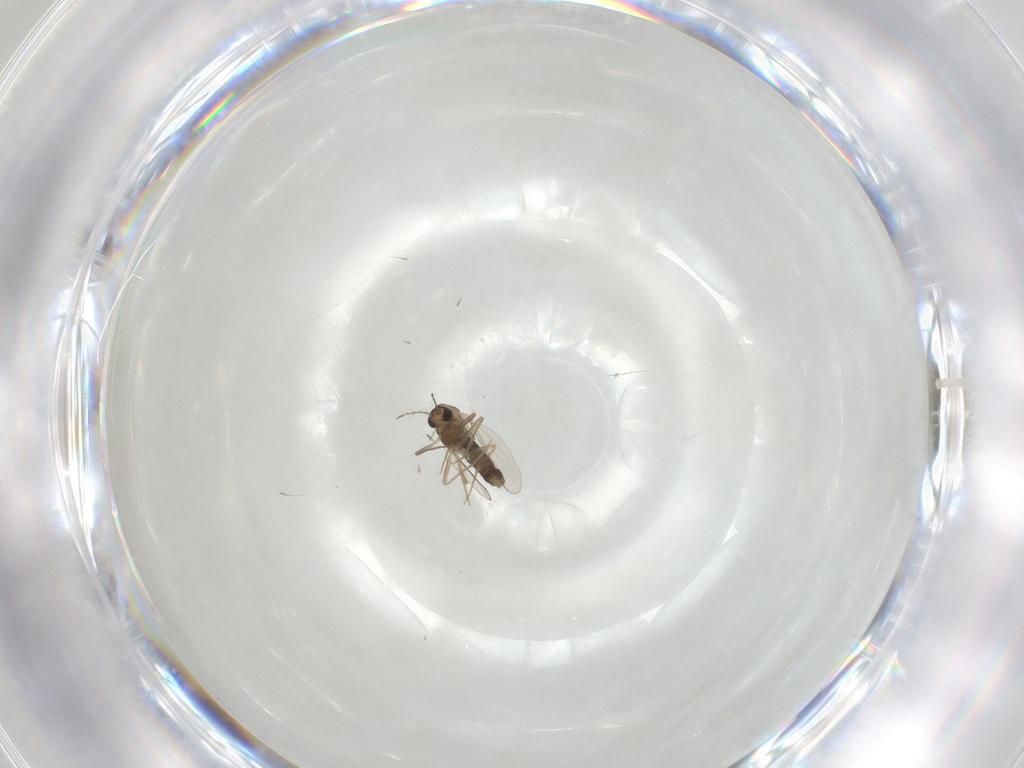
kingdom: Animalia
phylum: Arthropoda
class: Insecta
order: Diptera
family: Chironomidae
